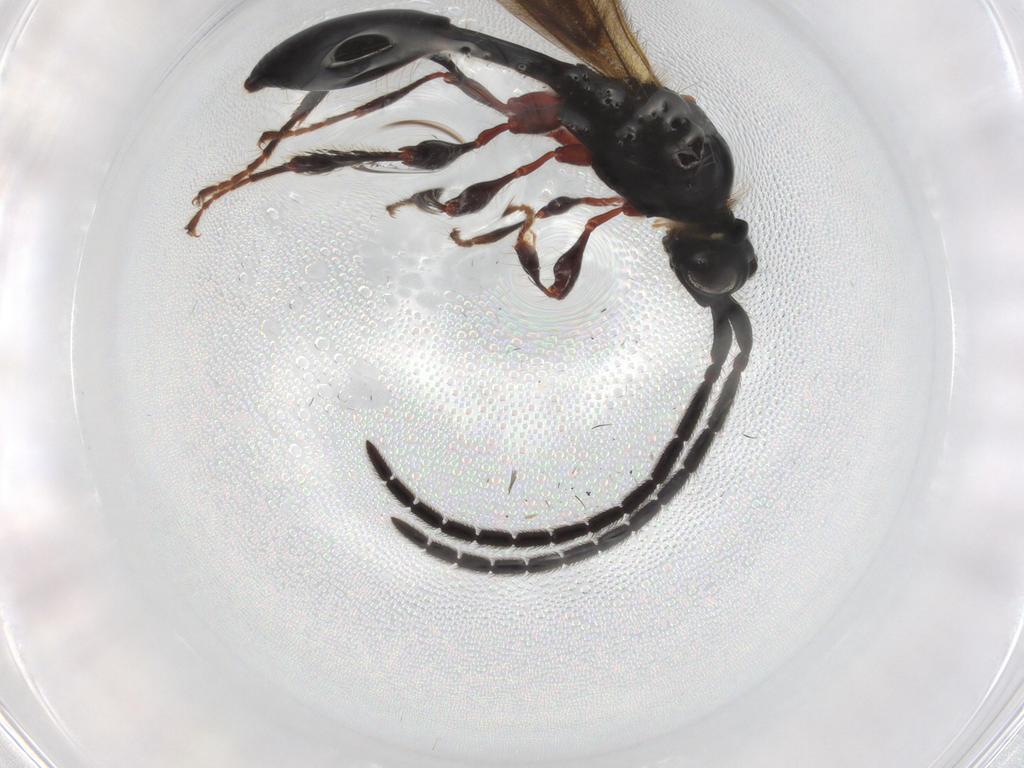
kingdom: Animalia
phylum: Arthropoda
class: Insecta
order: Hymenoptera
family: Diapriidae
